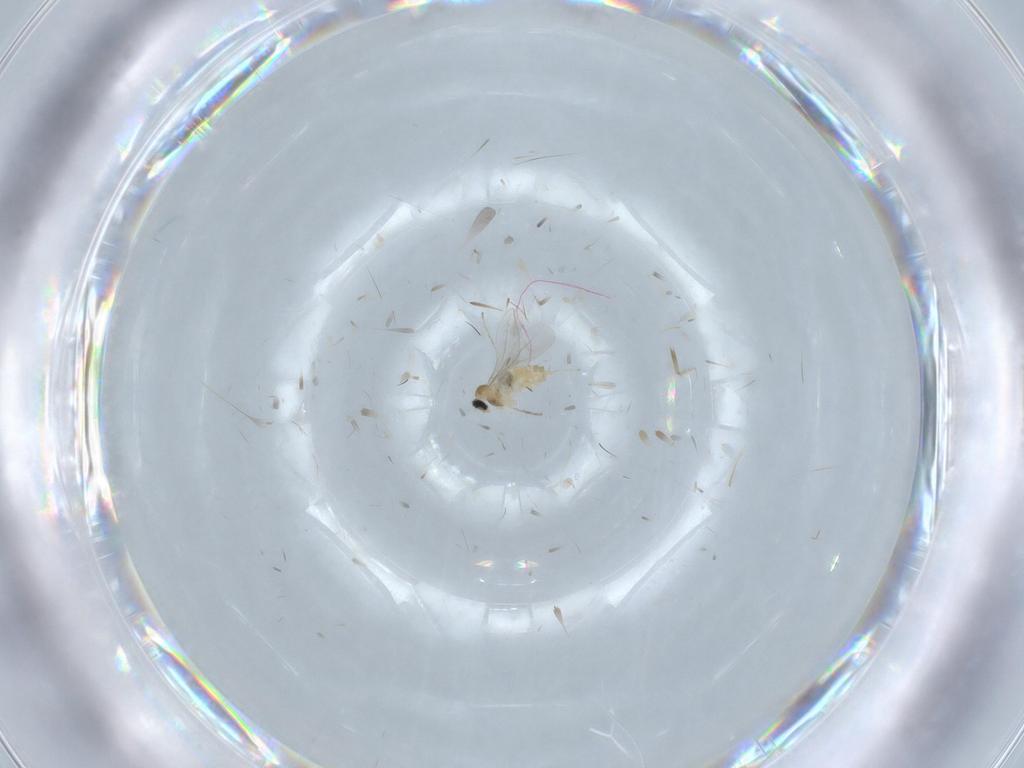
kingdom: Animalia
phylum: Arthropoda
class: Insecta
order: Diptera
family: Cecidomyiidae
